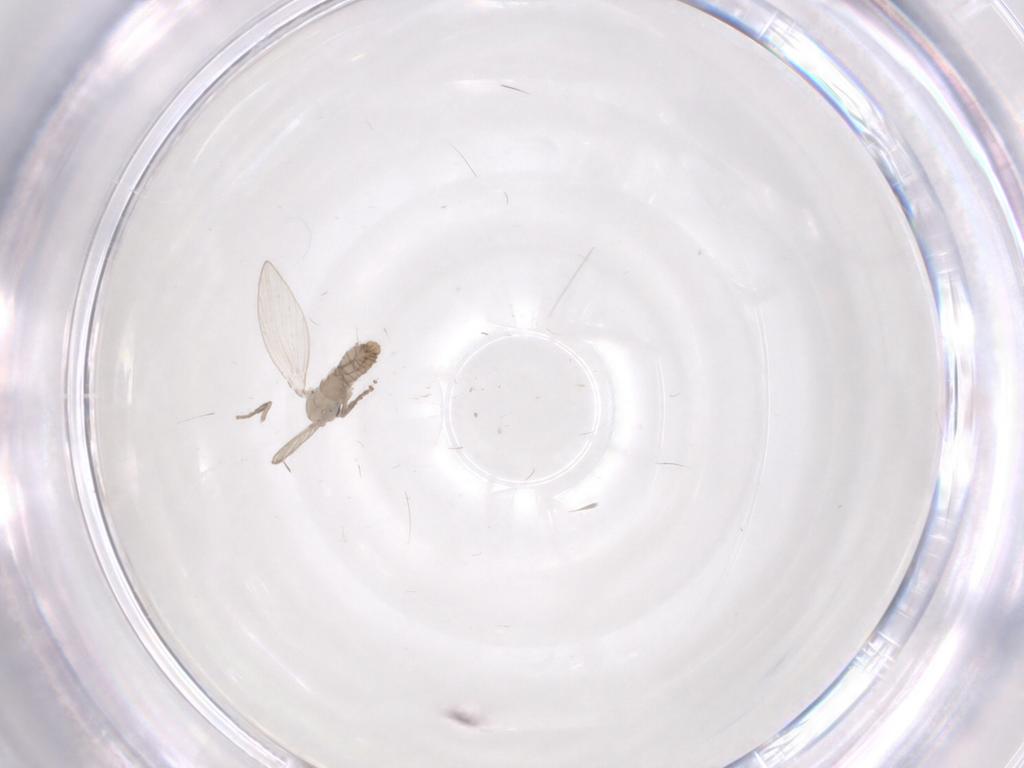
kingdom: Animalia
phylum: Arthropoda
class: Insecta
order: Diptera
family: Psychodidae
